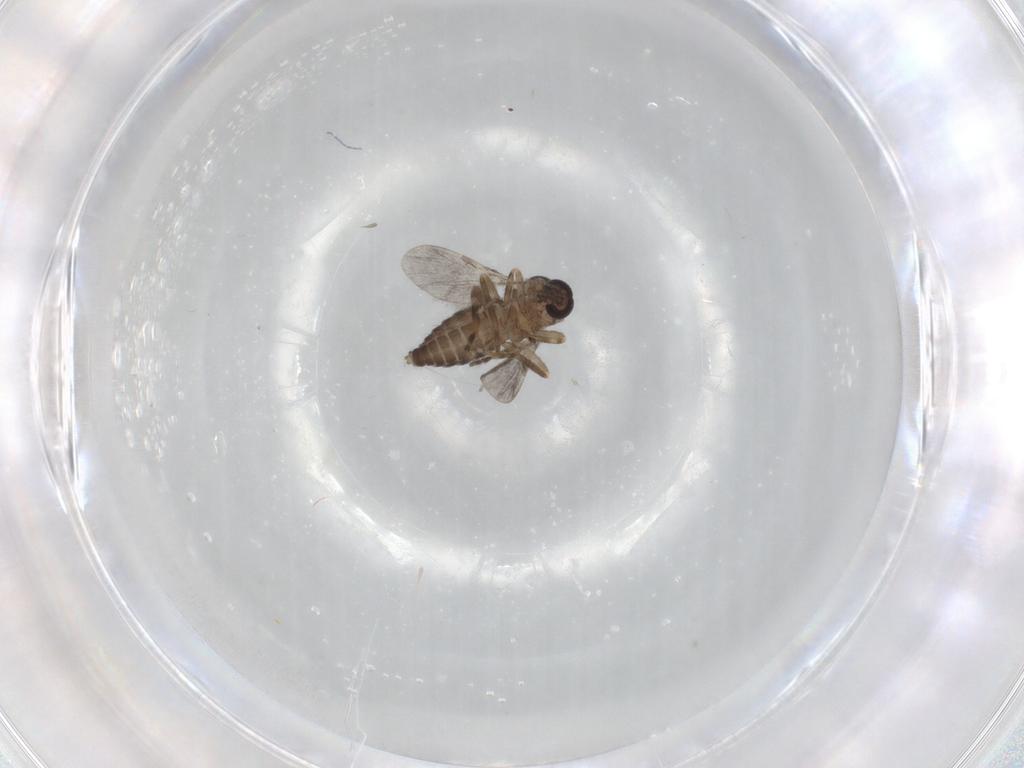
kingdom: Animalia
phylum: Arthropoda
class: Insecta
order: Diptera
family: Ceratopogonidae
